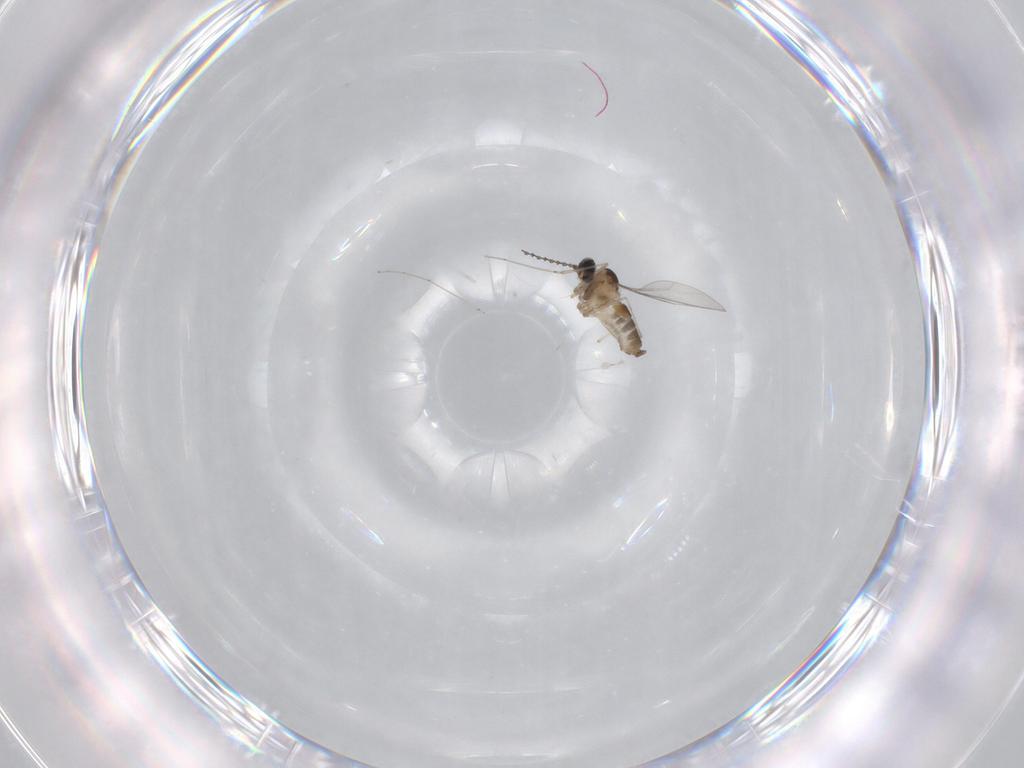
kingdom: Animalia
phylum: Arthropoda
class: Insecta
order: Diptera
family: Cecidomyiidae
